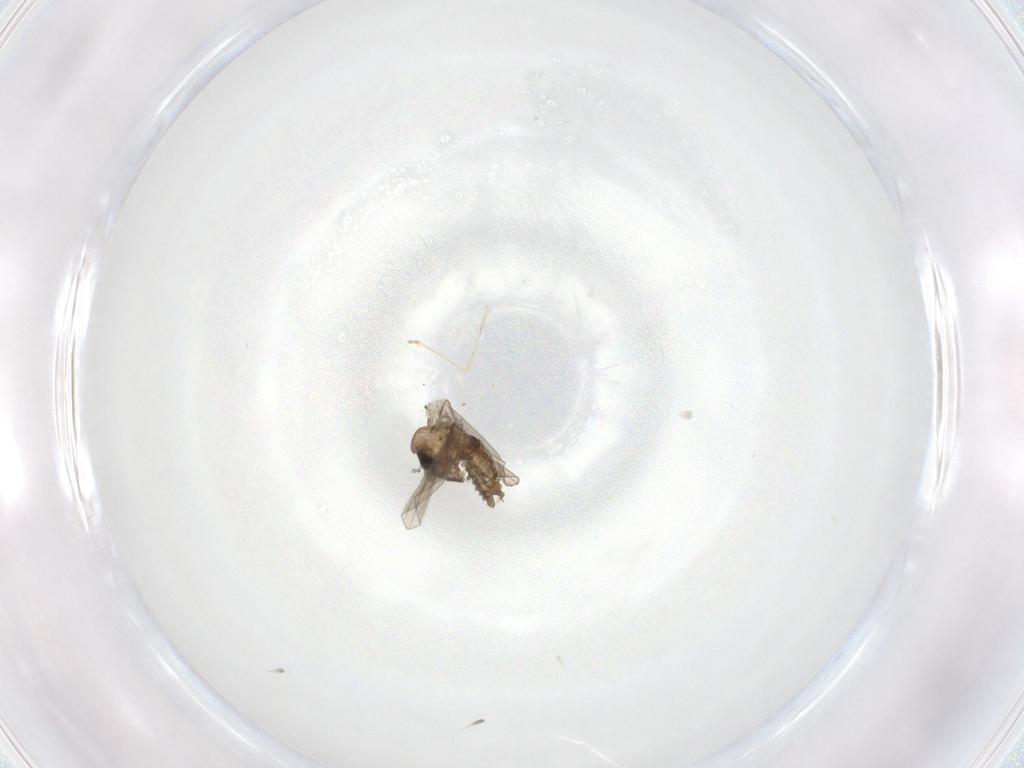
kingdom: Animalia
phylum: Arthropoda
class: Insecta
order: Diptera
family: Psychodidae
